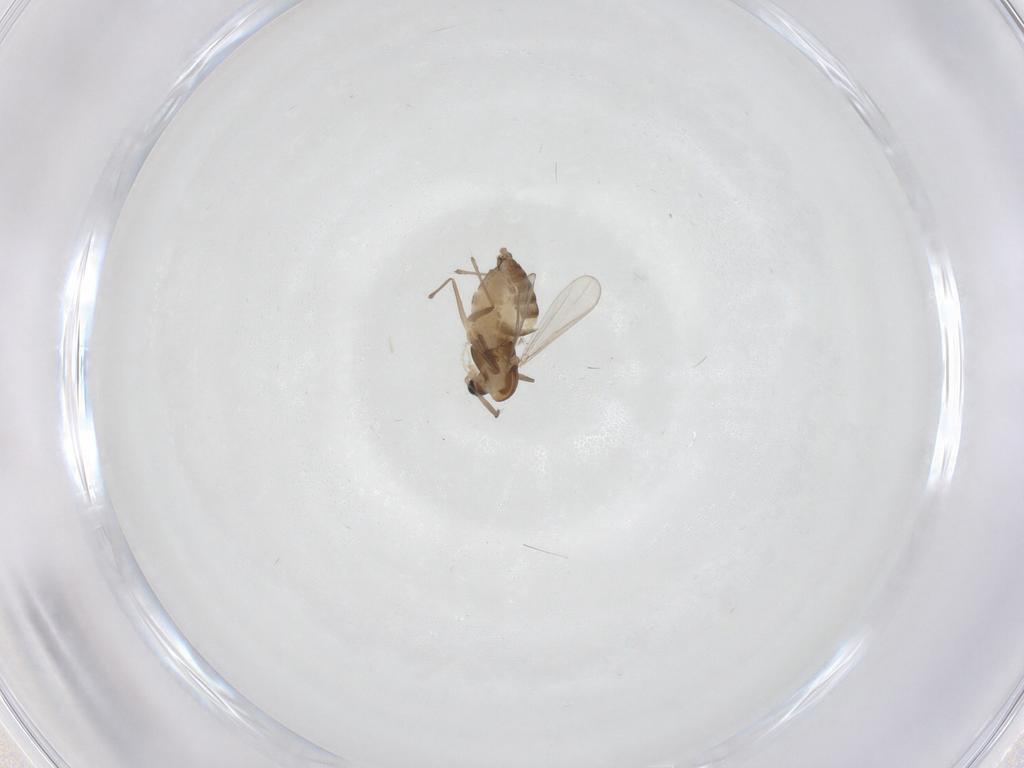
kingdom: Animalia
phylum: Arthropoda
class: Insecta
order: Diptera
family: Chironomidae
